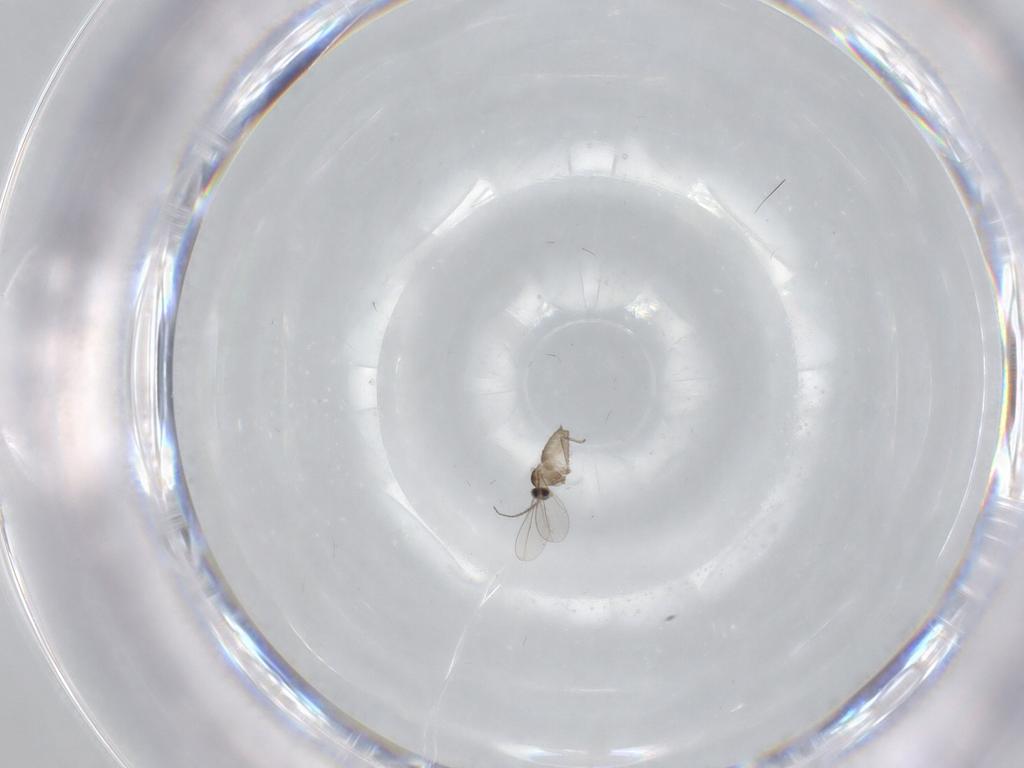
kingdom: Animalia
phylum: Arthropoda
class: Insecta
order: Diptera
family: Cecidomyiidae
